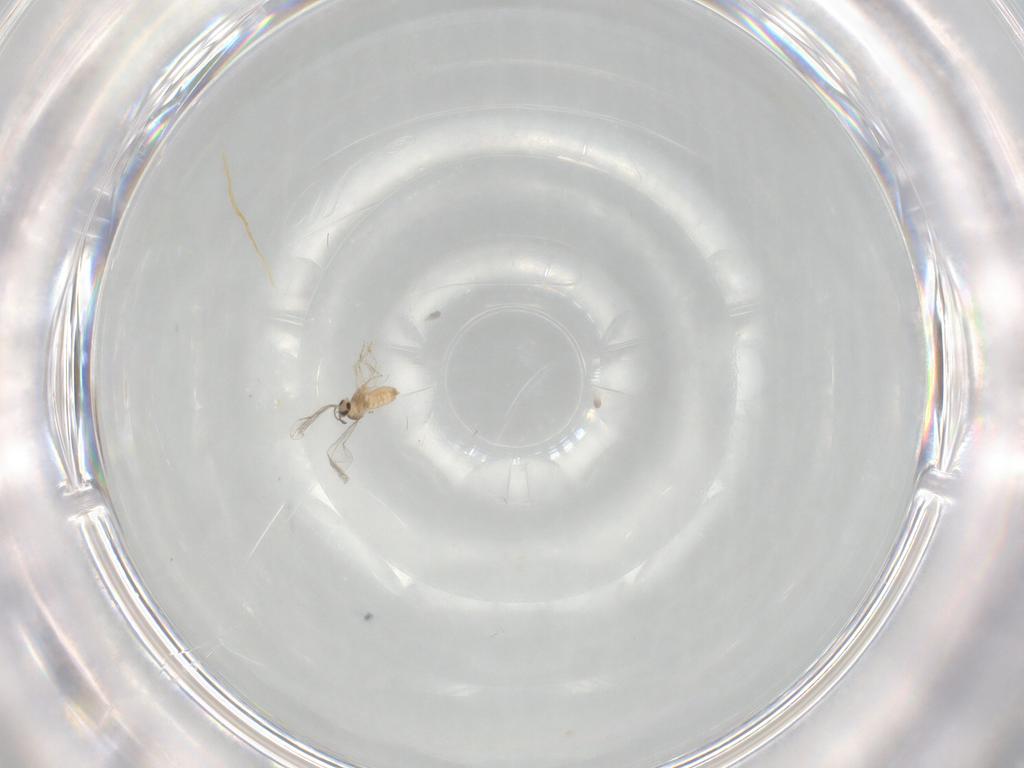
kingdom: Animalia
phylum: Arthropoda
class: Insecta
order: Diptera
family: Cecidomyiidae
